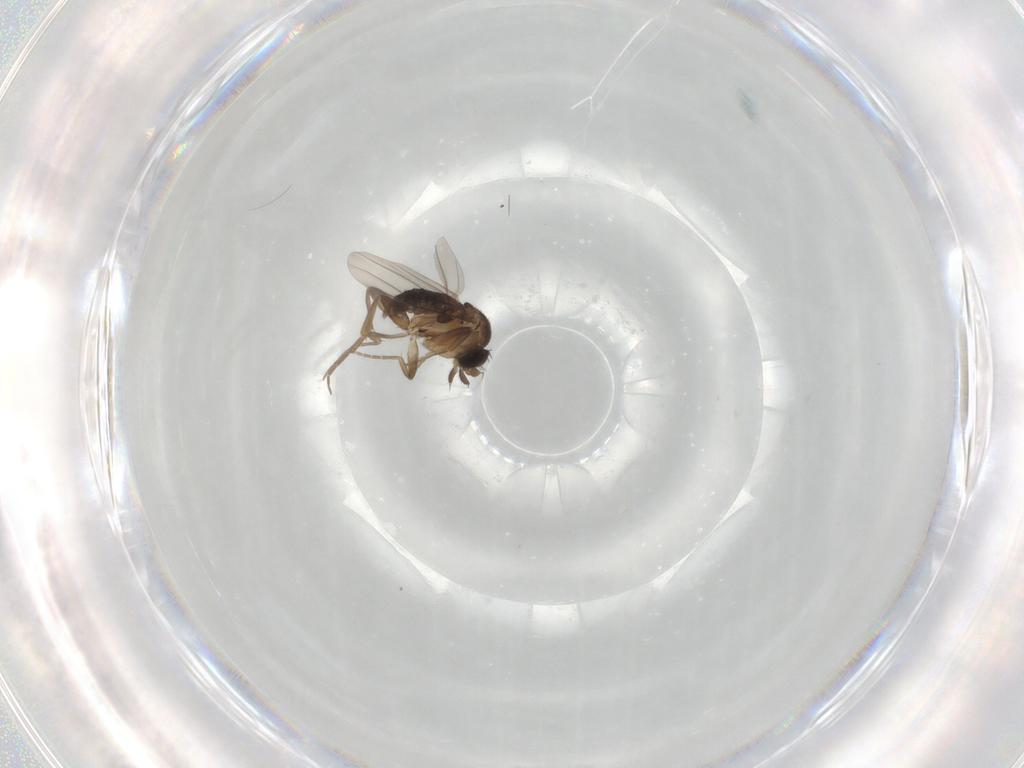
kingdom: Animalia
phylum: Arthropoda
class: Insecta
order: Diptera
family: Phoridae
